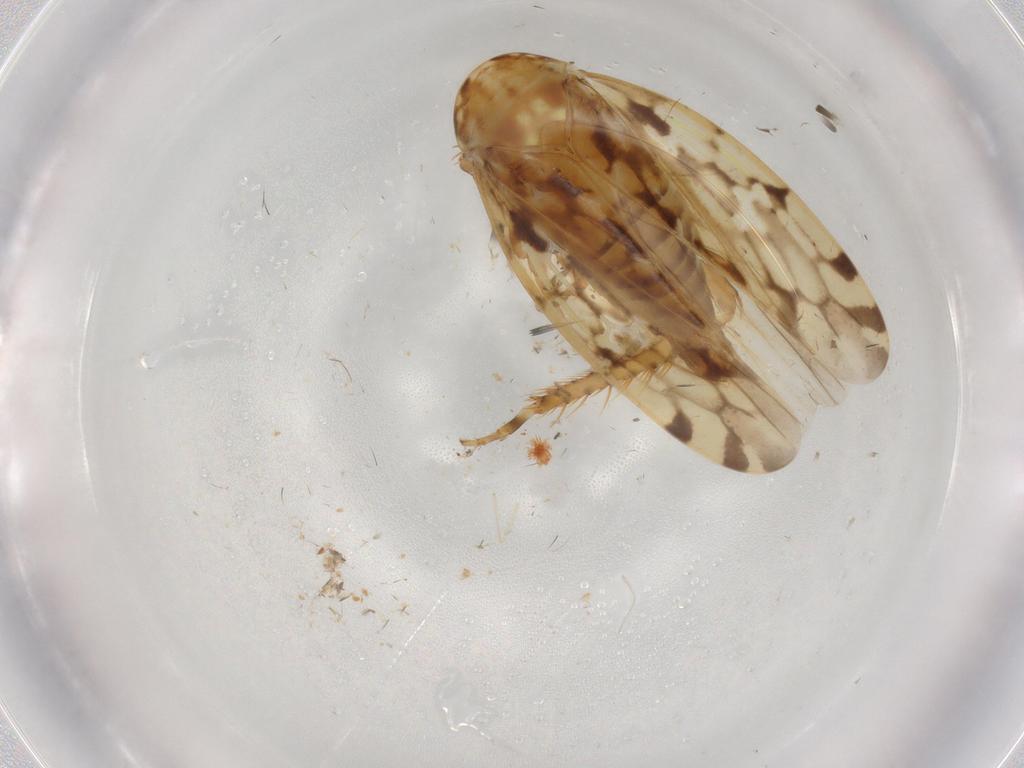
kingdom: Animalia
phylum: Arthropoda
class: Insecta
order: Hemiptera
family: Cicadellidae
